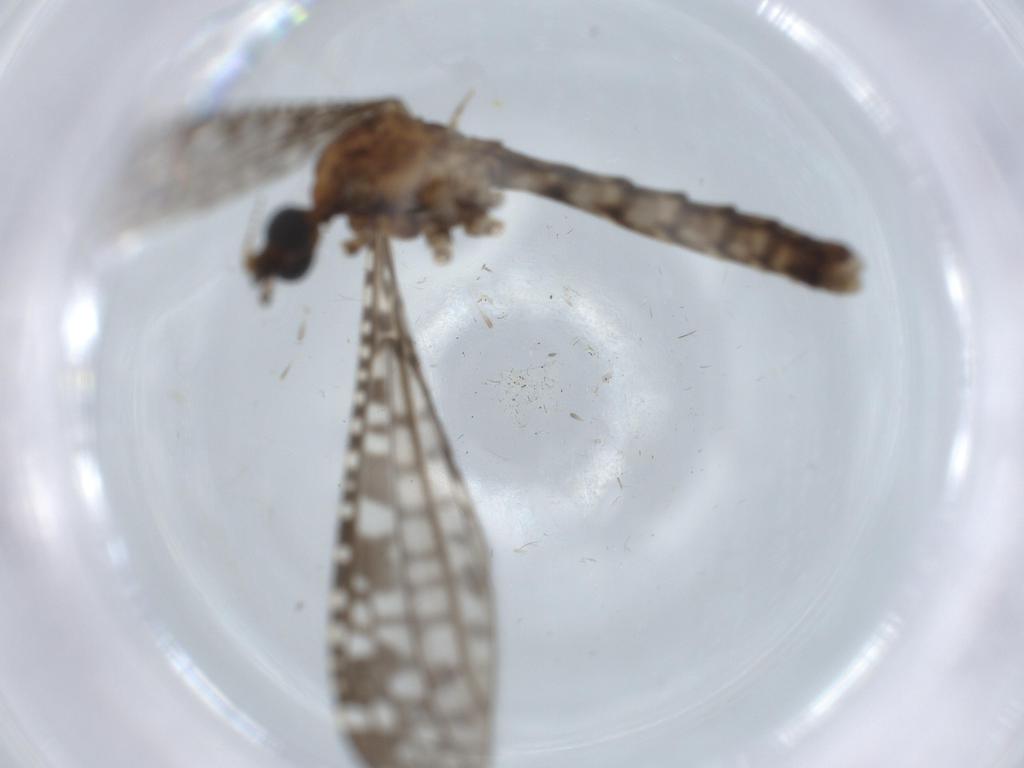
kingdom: Animalia
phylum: Arthropoda
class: Insecta
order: Diptera
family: Agromyzidae
